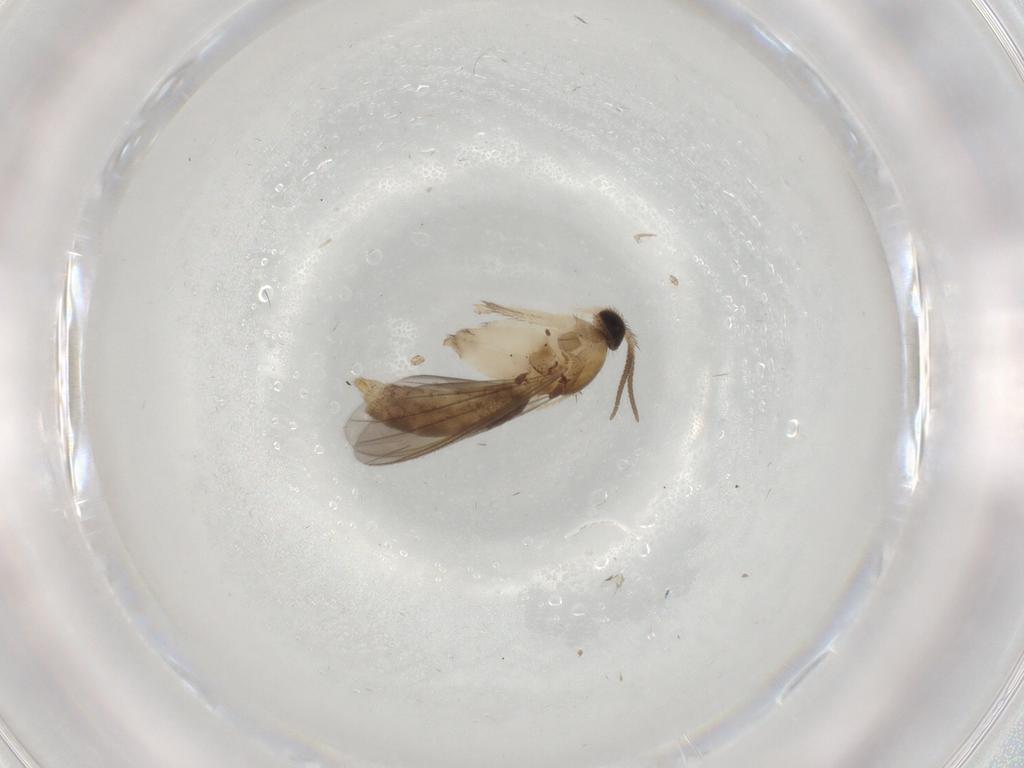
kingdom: Animalia
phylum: Arthropoda
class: Insecta
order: Diptera
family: Mycetophilidae
